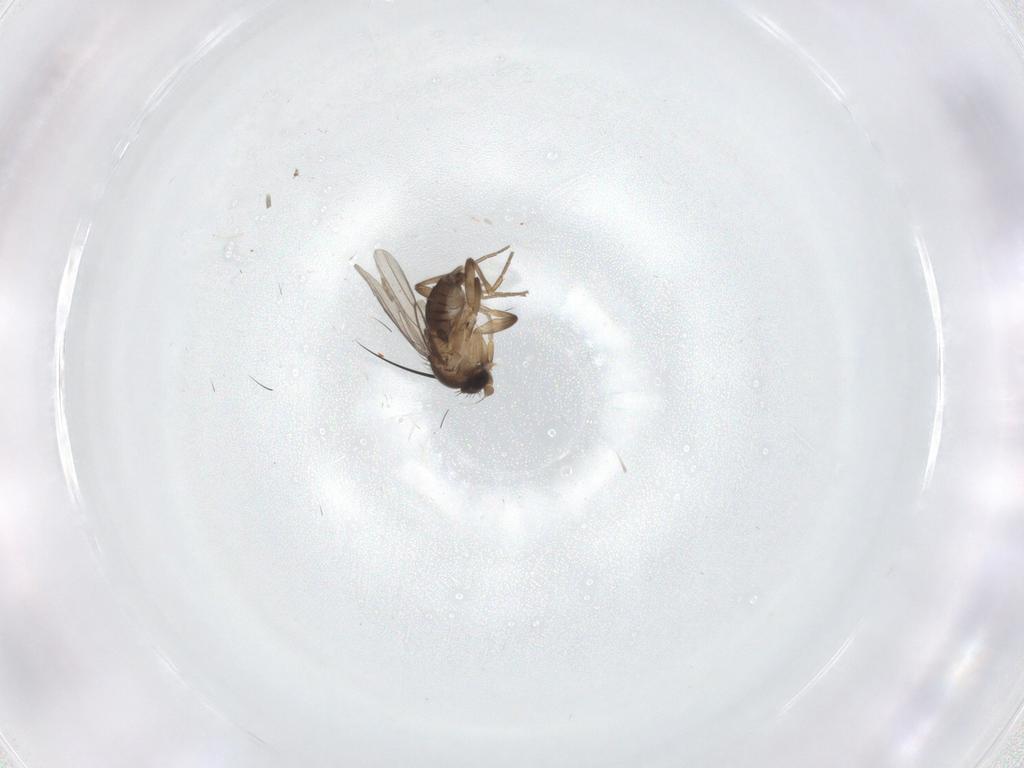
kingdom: Animalia
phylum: Arthropoda
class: Insecta
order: Diptera
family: Phoridae
